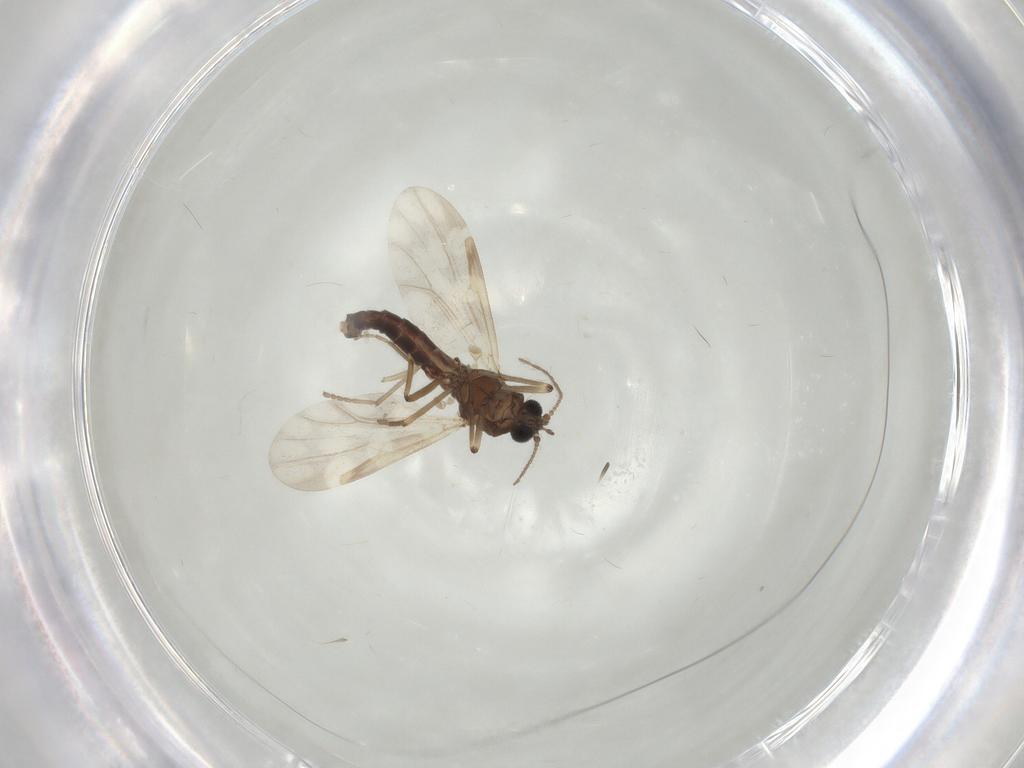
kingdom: Animalia
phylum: Arthropoda
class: Insecta
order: Diptera
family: Psychodidae
